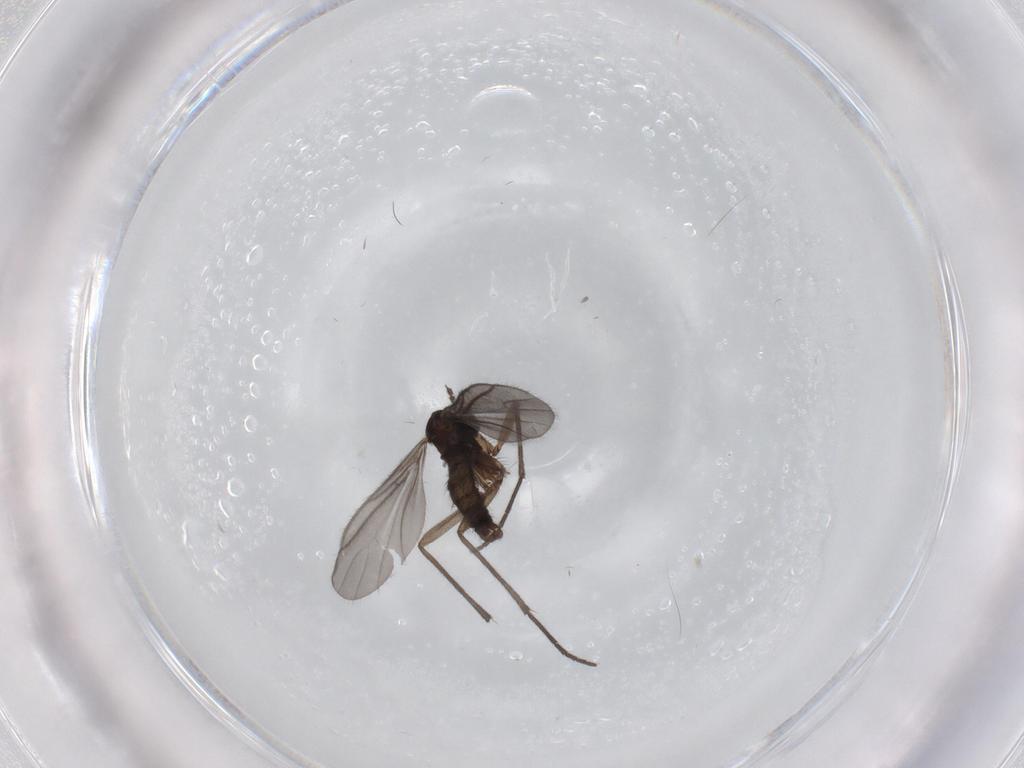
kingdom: Animalia
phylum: Arthropoda
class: Insecta
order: Diptera
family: Sciaridae
